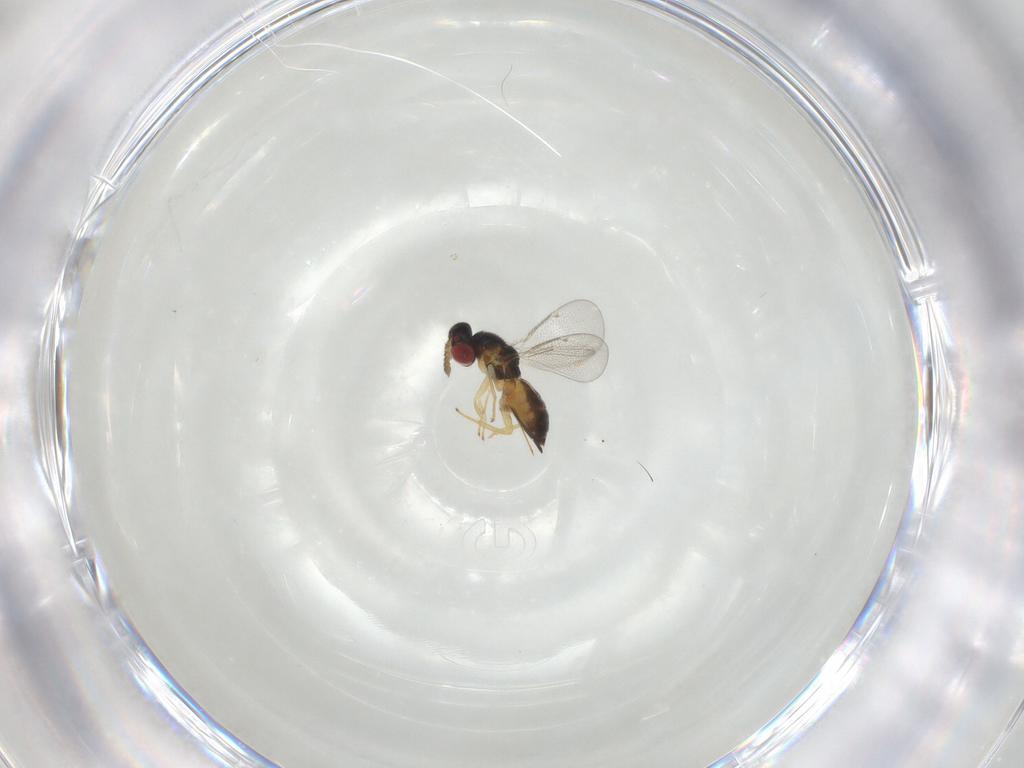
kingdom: Animalia
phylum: Arthropoda
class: Insecta
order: Hymenoptera
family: Eulophidae
